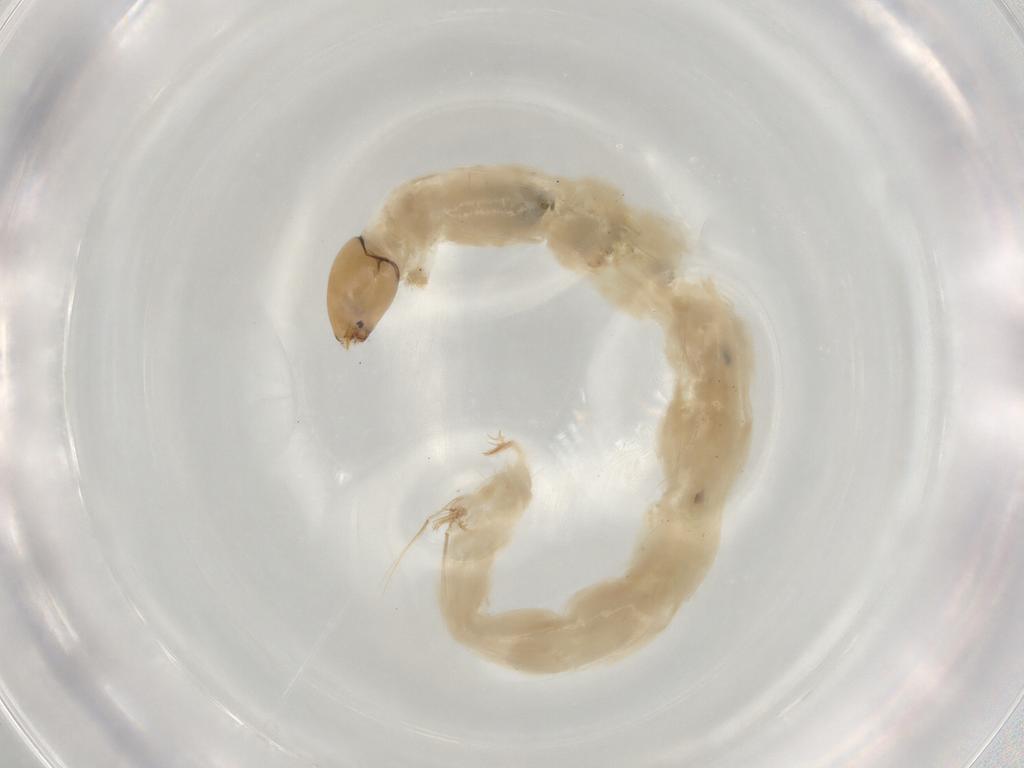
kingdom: Animalia
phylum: Arthropoda
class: Insecta
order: Diptera
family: Chironomidae
